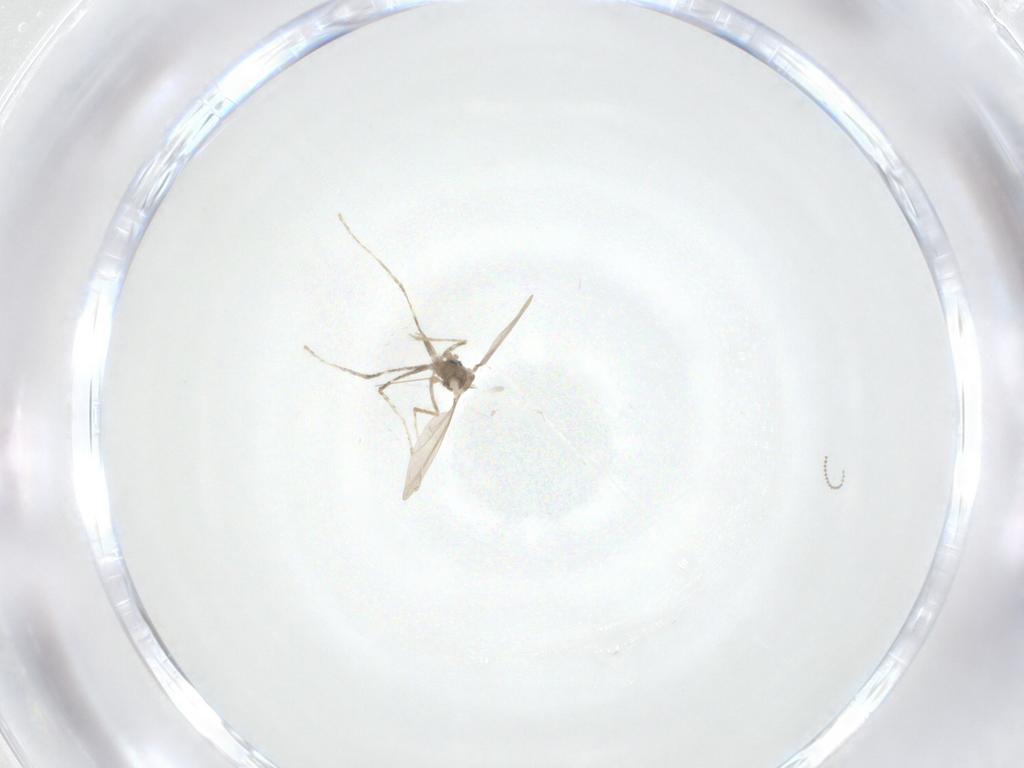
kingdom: Animalia
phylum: Arthropoda
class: Insecta
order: Diptera
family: Cecidomyiidae
